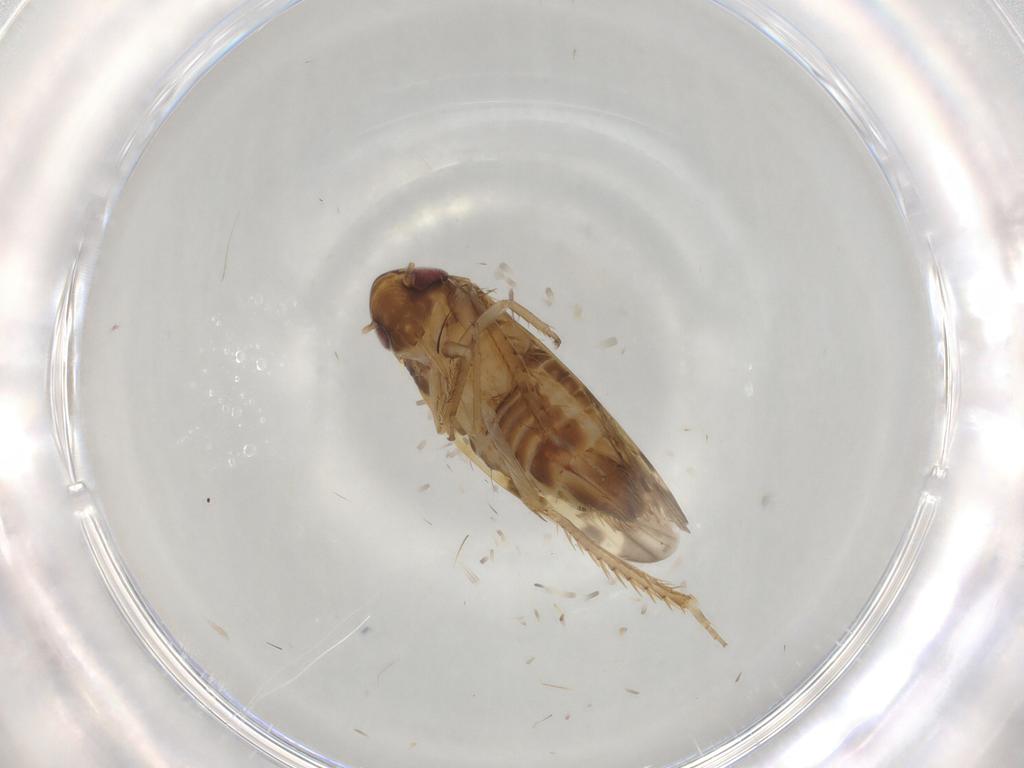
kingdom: Animalia
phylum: Arthropoda
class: Insecta
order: Hemiptera
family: Cicadellidae
